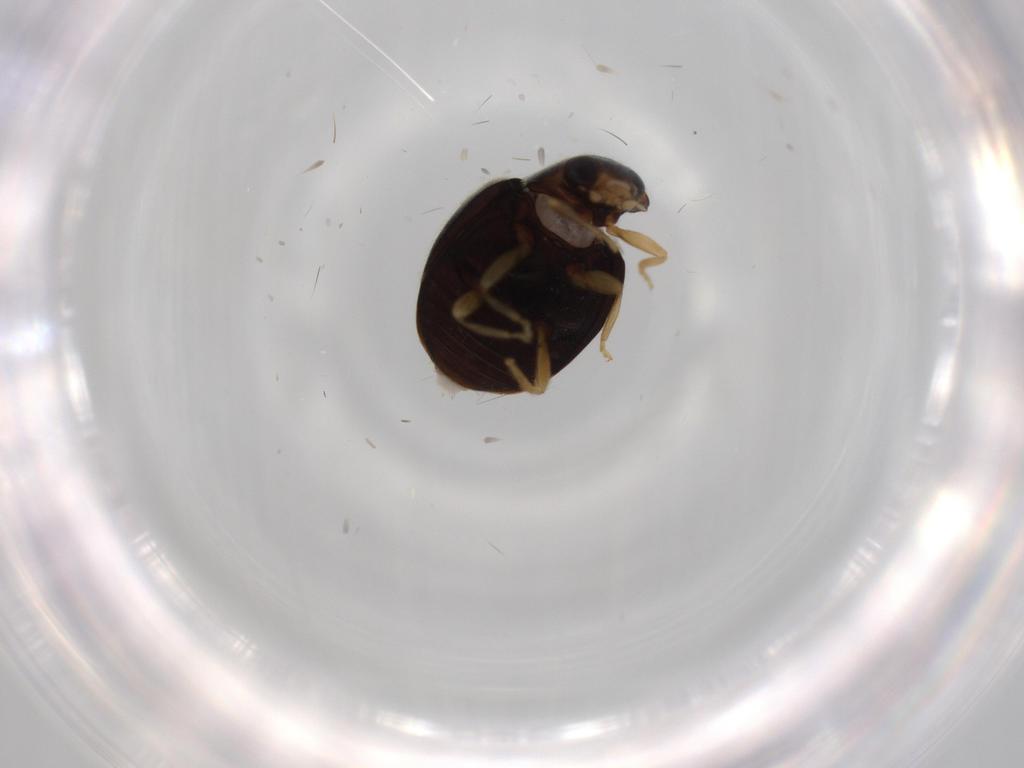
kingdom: Animalia
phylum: Arthropoda
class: Insecta
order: Coleoptera
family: Coccinellidae
